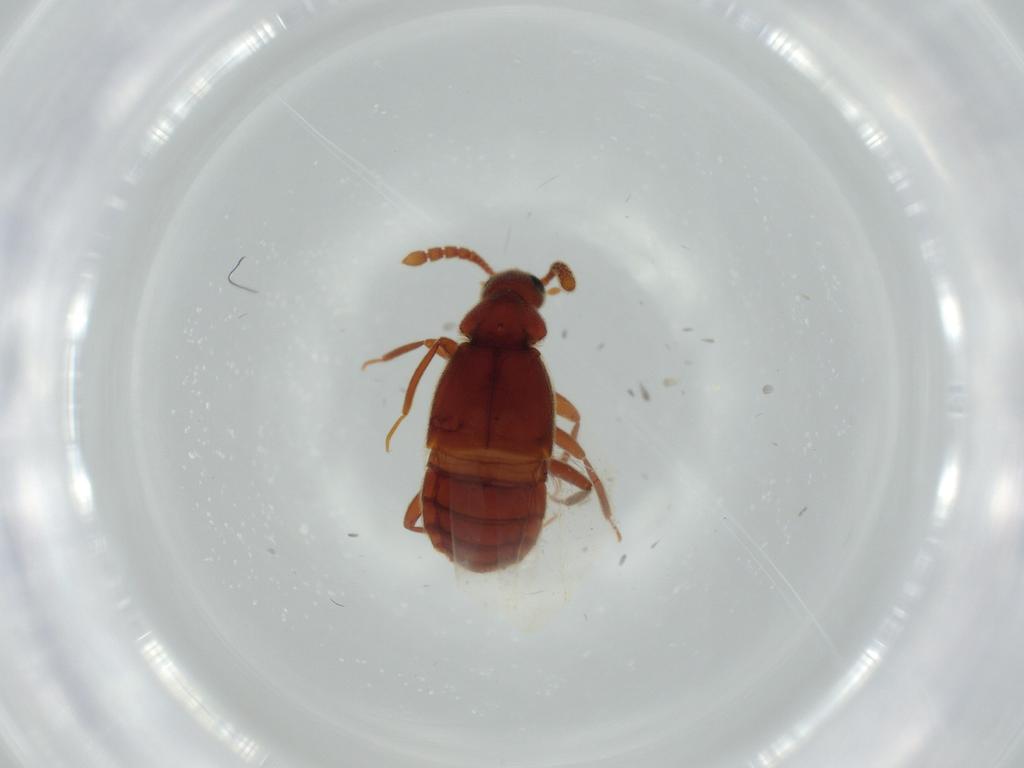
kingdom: Animalia
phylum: Arthropoda
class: Insecta
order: Coleoptera
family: Staphylinidae
